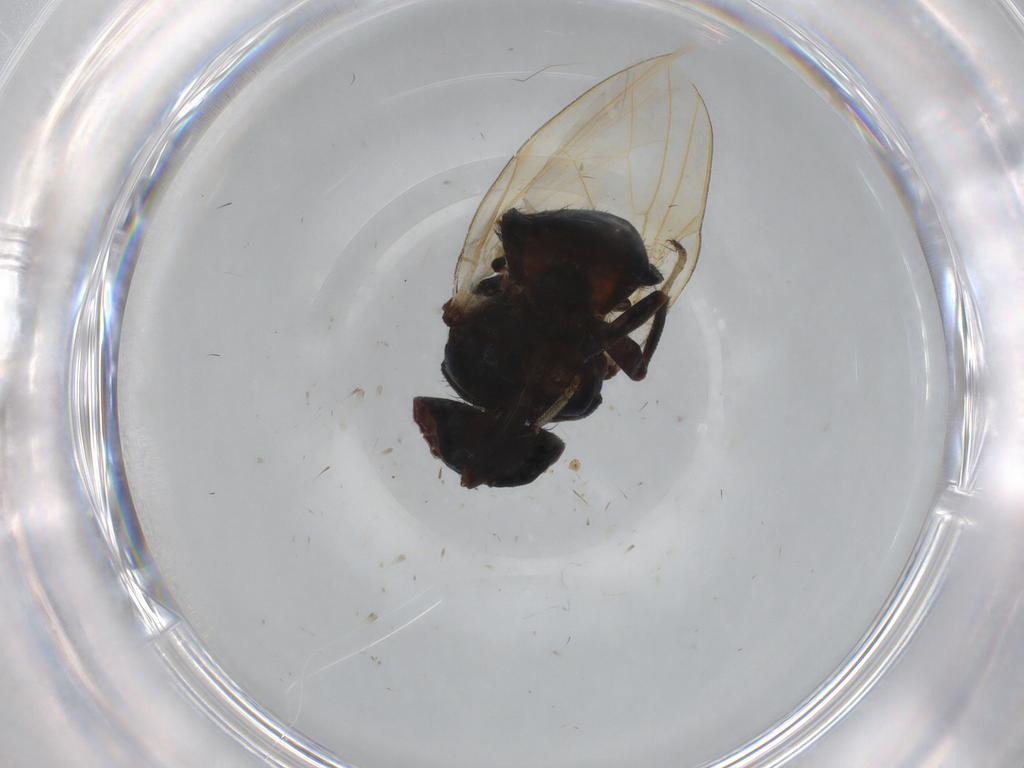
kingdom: Animalia
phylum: Arthropoda
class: Insecta
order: Diptera
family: Lonchaeidae
